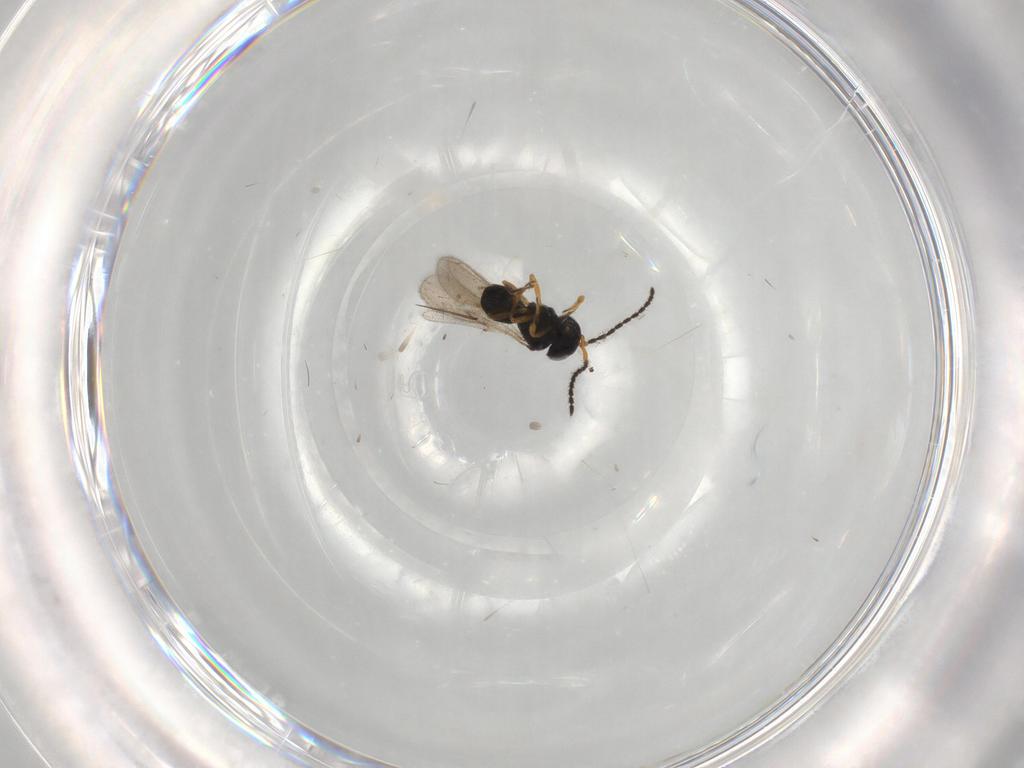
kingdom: Animalia
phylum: Arthropoda
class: Insecta
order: Hymenoptera
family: Scelionidae
